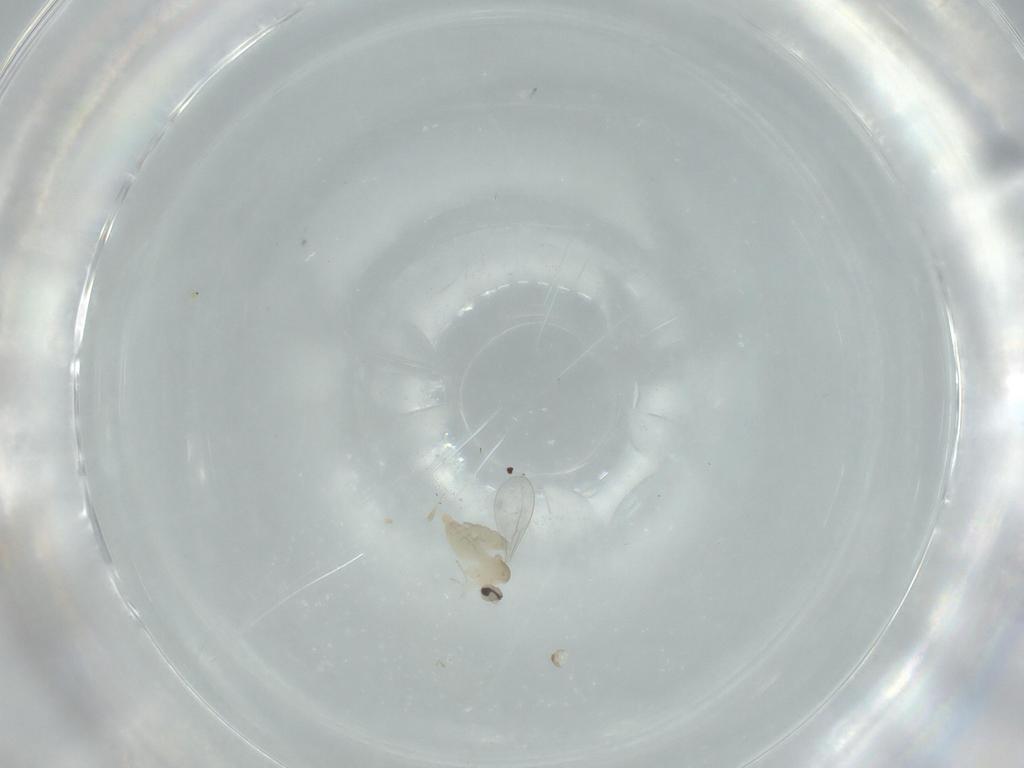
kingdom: Animalia
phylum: Arthropoda
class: Insecta
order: Diptera
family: Cecidomyiidae
